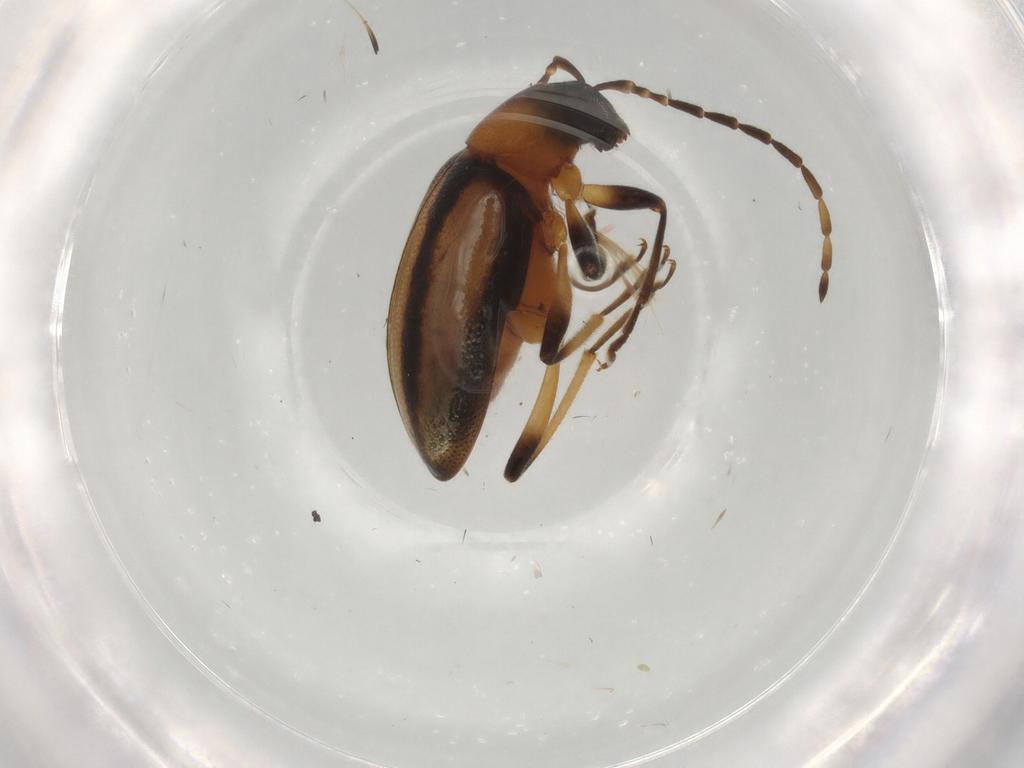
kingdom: Animalia
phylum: Arthropoda
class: Insecta
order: Coleoptera
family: Chrysomelidae
